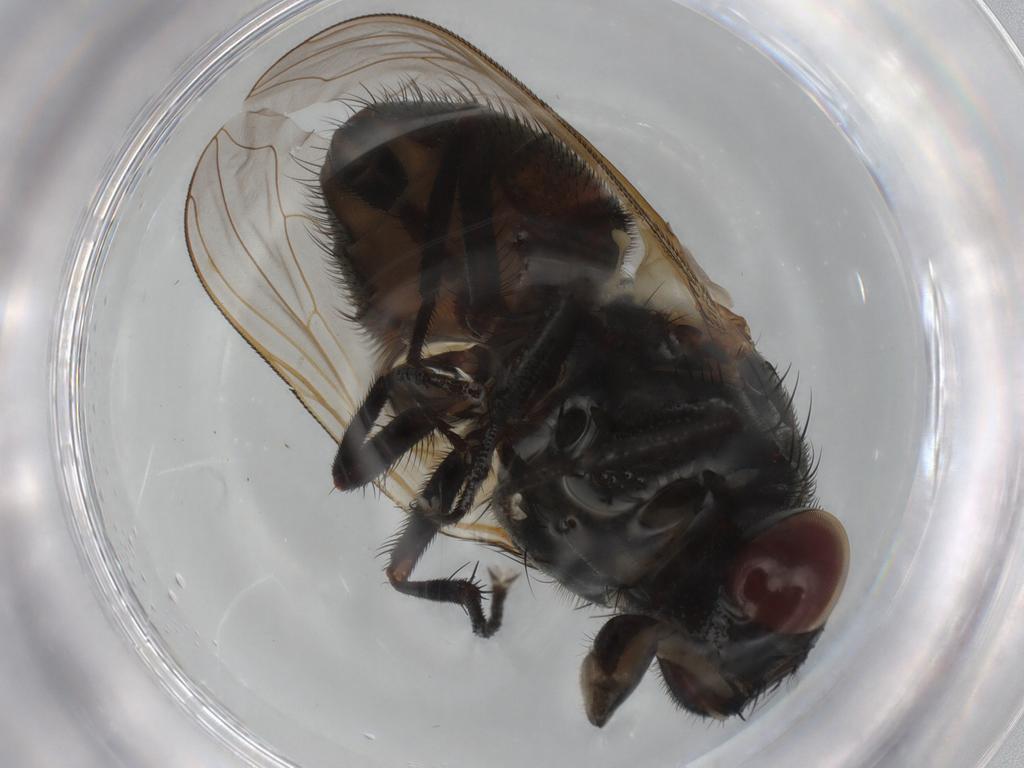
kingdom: Animalia
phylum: Arthropoda
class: Insecta
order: Diptera
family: Muscidae
